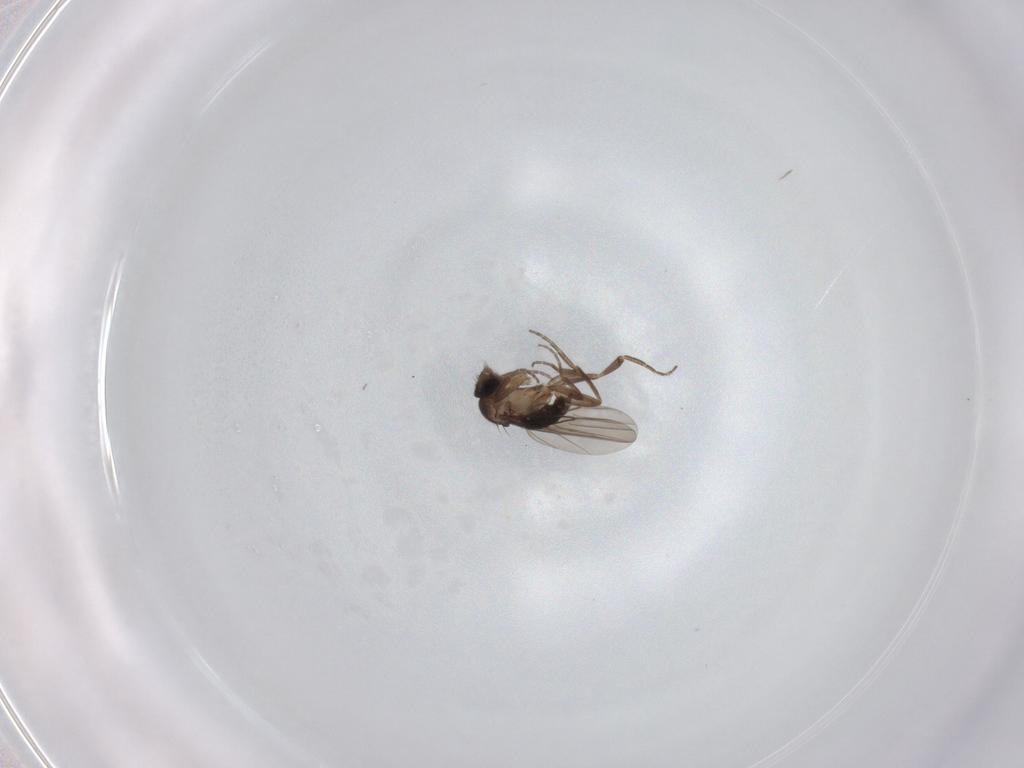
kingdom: Animalia
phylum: Arthropoda
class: Insecta
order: Diptera
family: Phoridae
